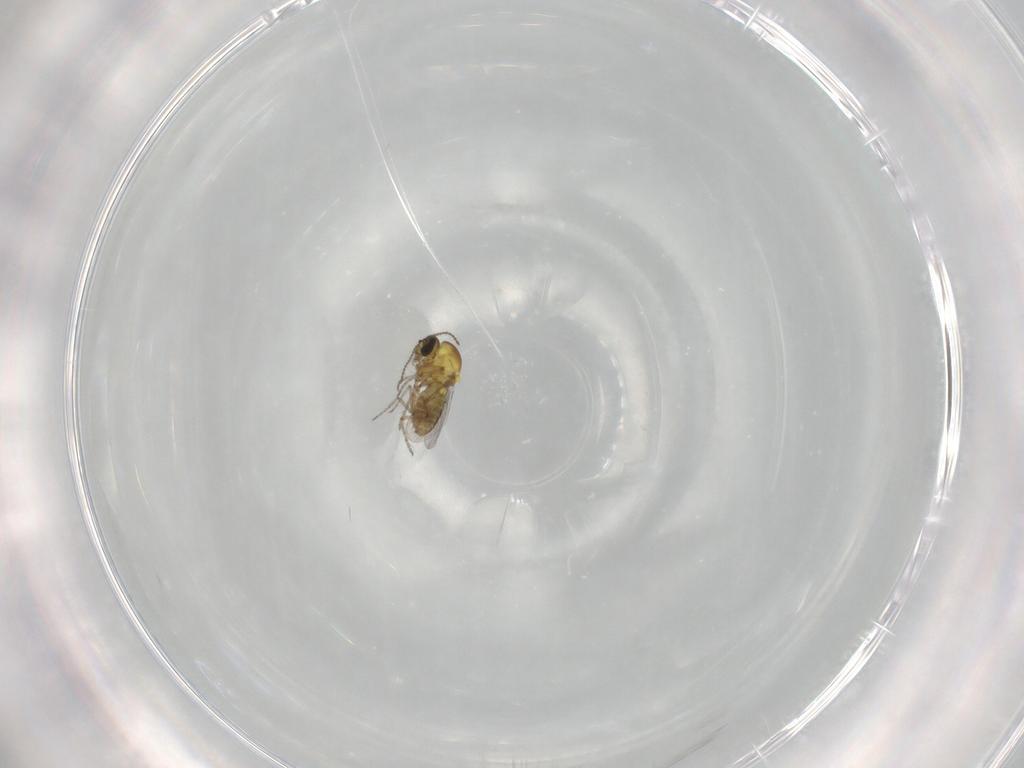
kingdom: Animalia
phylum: Arthropoda
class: Insecta
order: Diptera
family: Ceratopogonidae
